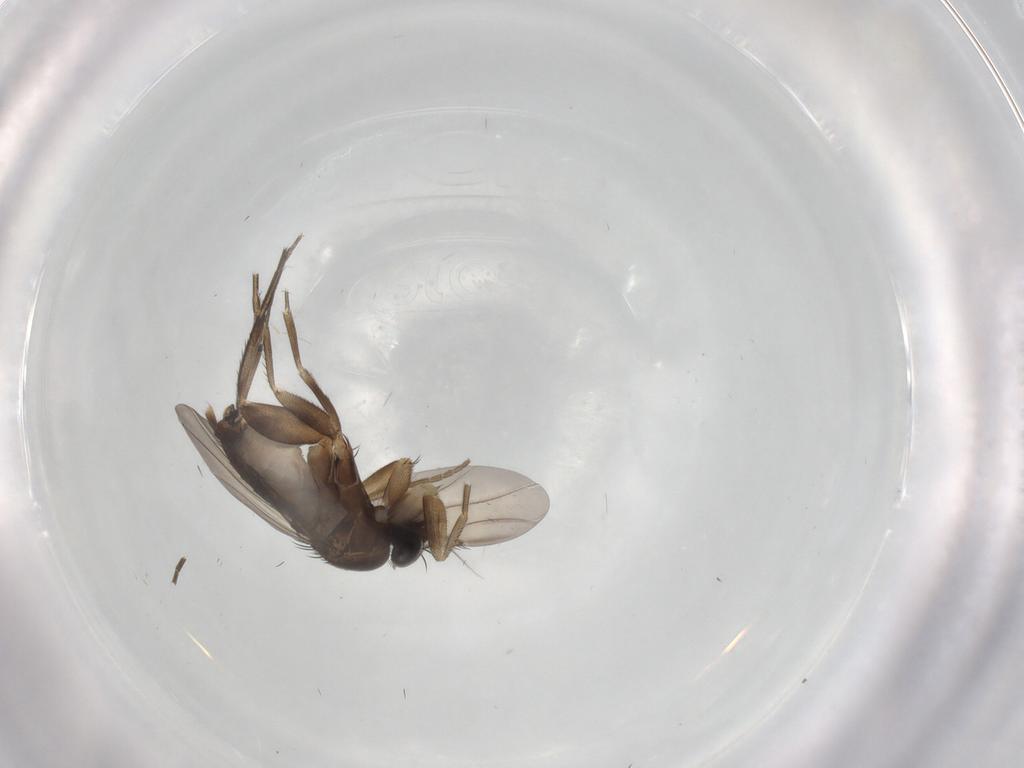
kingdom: Animalia
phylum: Arthropoda
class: Insecta
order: Diptera
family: Phoridae
